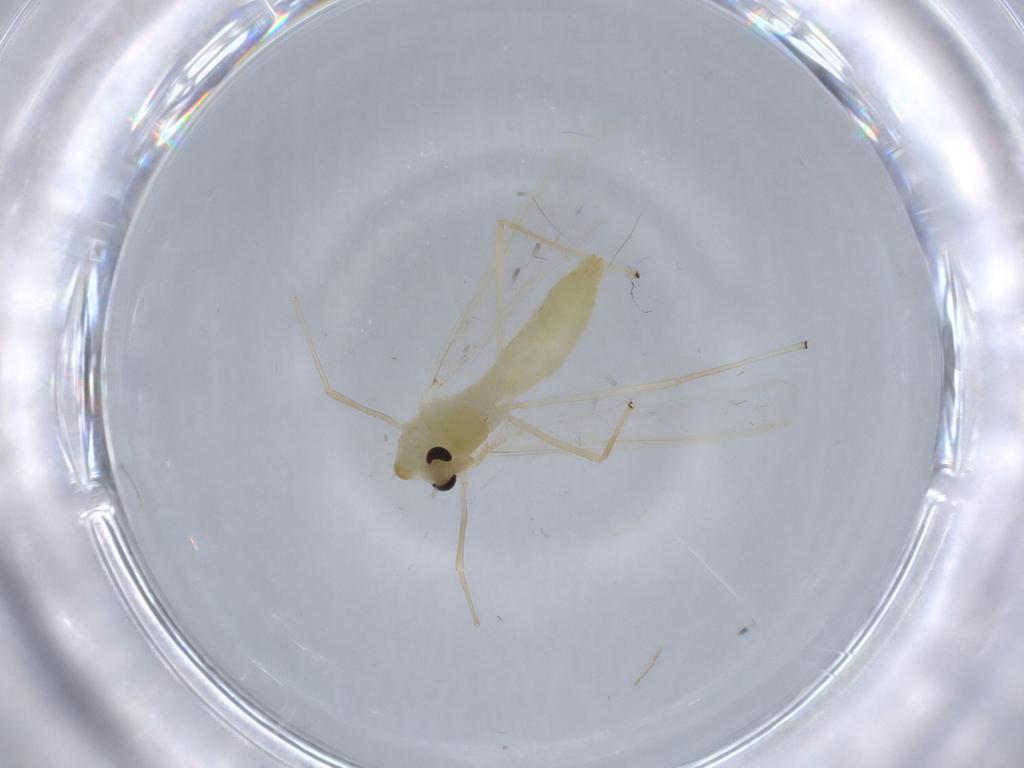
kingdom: Animalia
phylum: Arthropoda
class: Insecta
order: Diptera
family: Chironomidae
